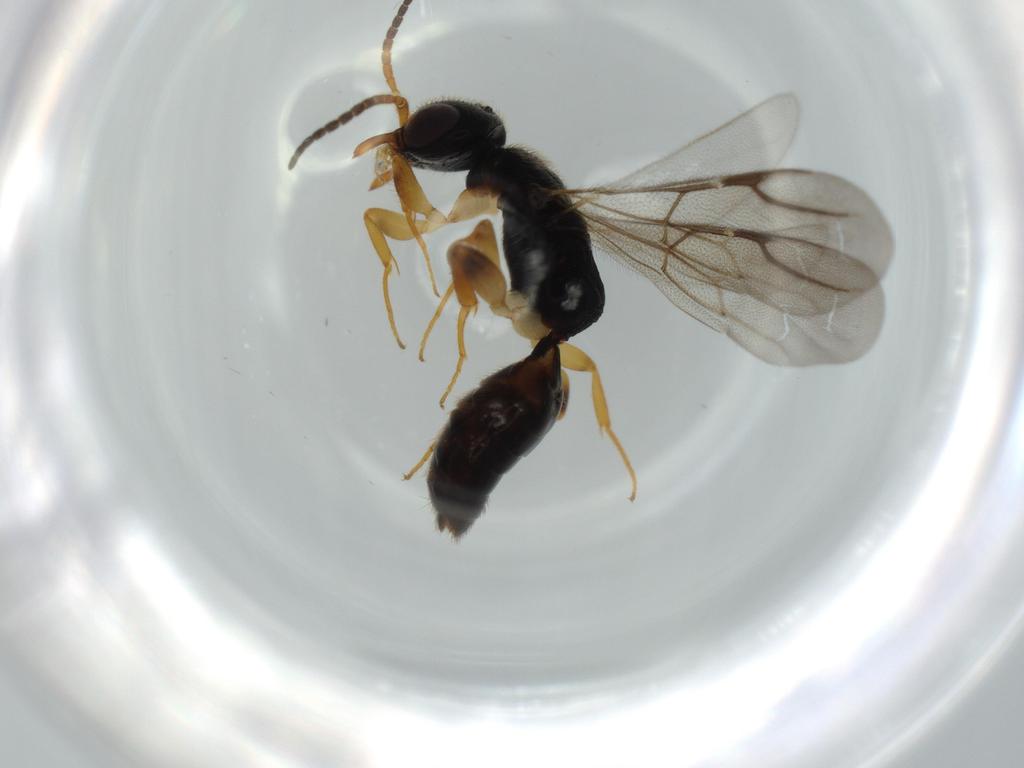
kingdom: Animalia
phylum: Arthropoda
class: Insecta
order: Hymenoptera
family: Bethylidae
